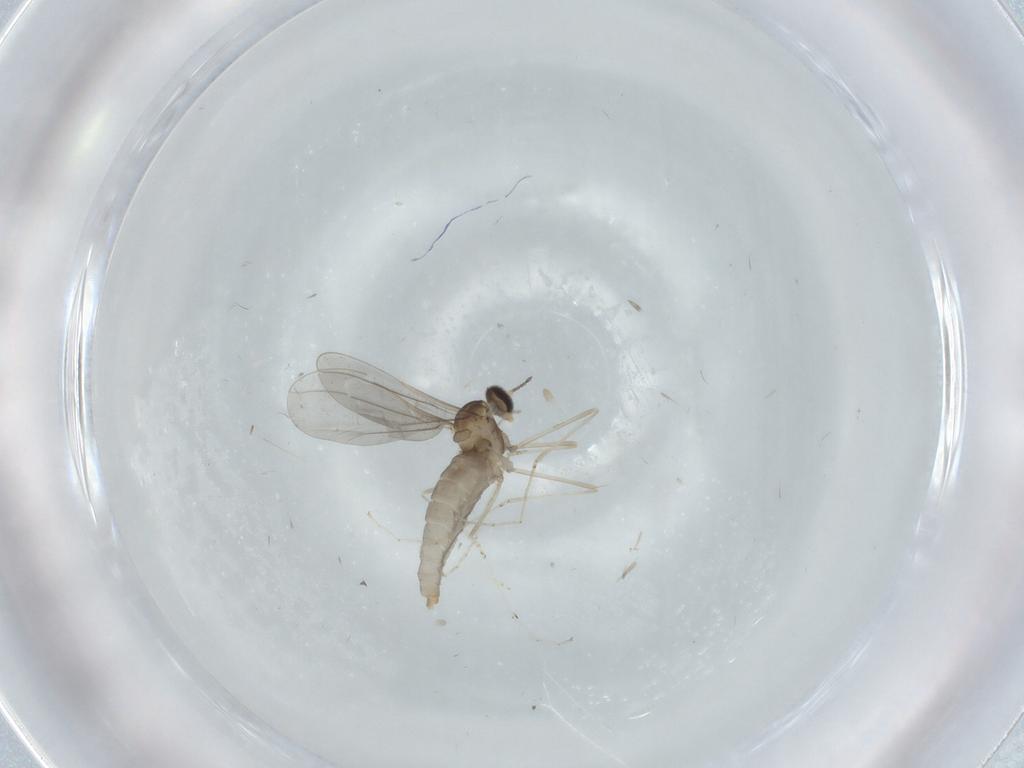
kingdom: Animalia
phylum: Arthropoda
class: Insecta
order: Diptera
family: Cecidomyiidae
